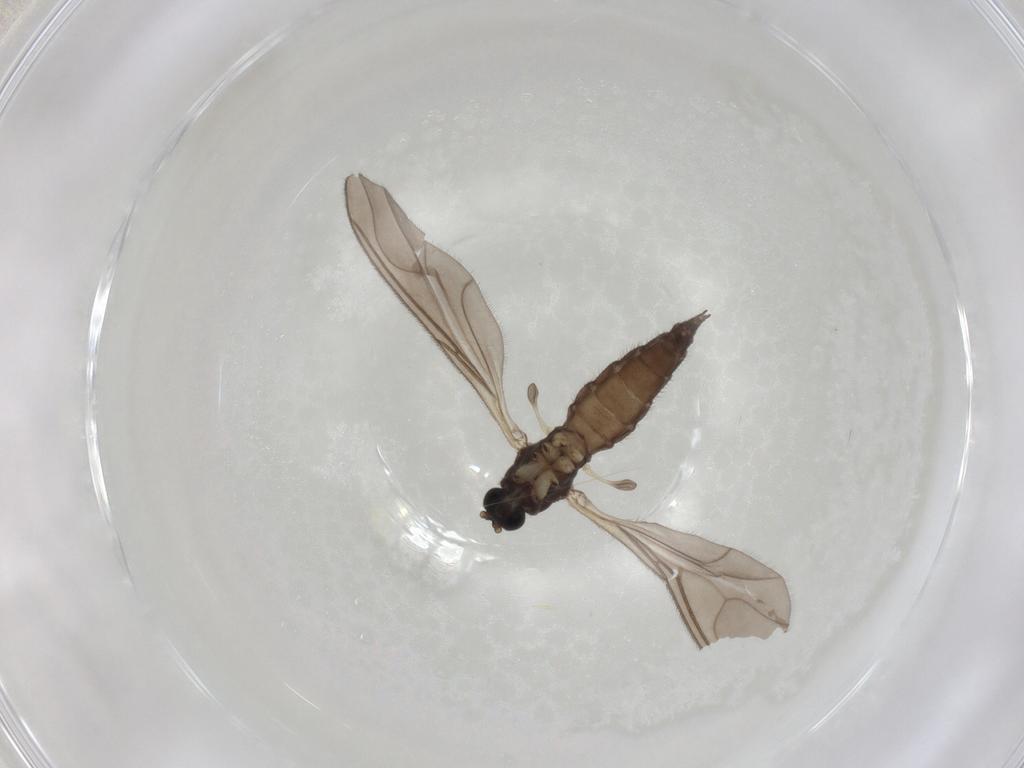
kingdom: Animalia
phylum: Arthropoda
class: Insecta
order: Diptera
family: Sciaridae
